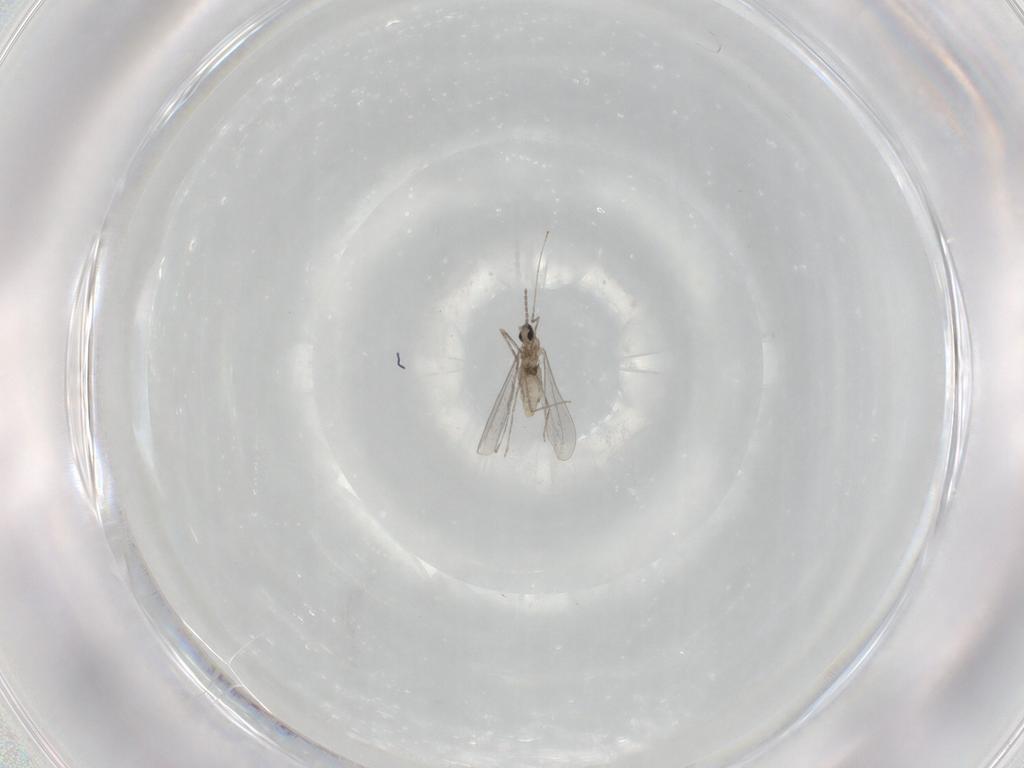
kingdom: Animalia
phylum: Arthropoda
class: Insecta
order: Diptera
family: Cecidomyiidae
